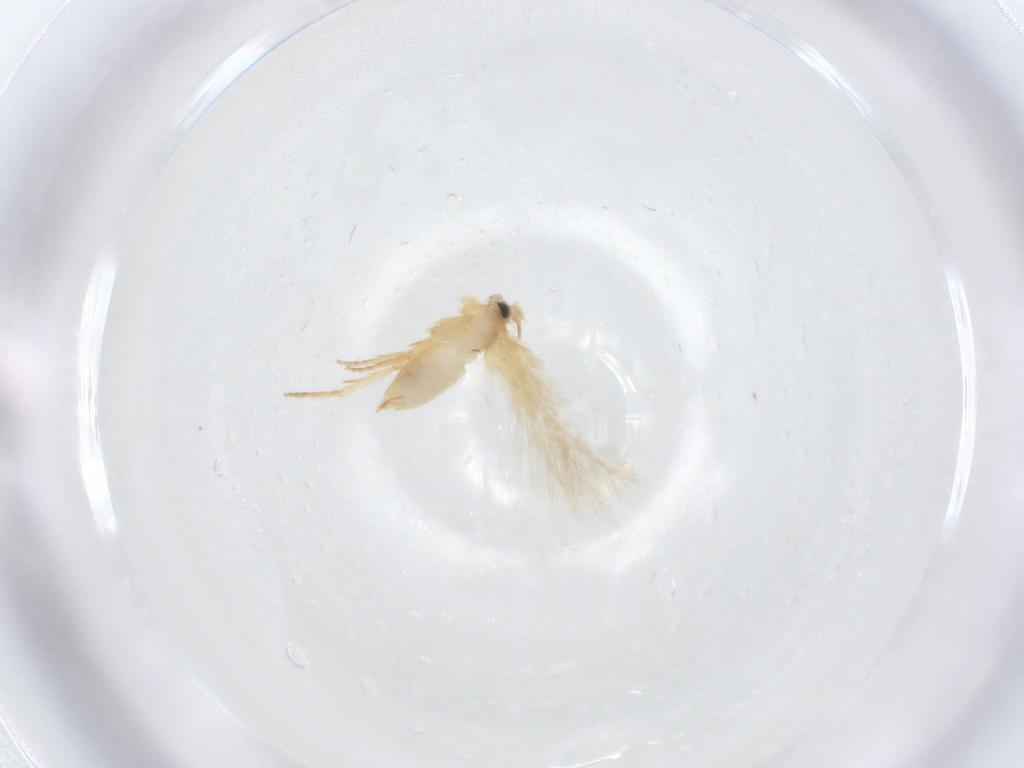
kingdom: Animalia
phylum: Arthropoda
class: Insecta
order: Lepidoptera
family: Nepticulidae
